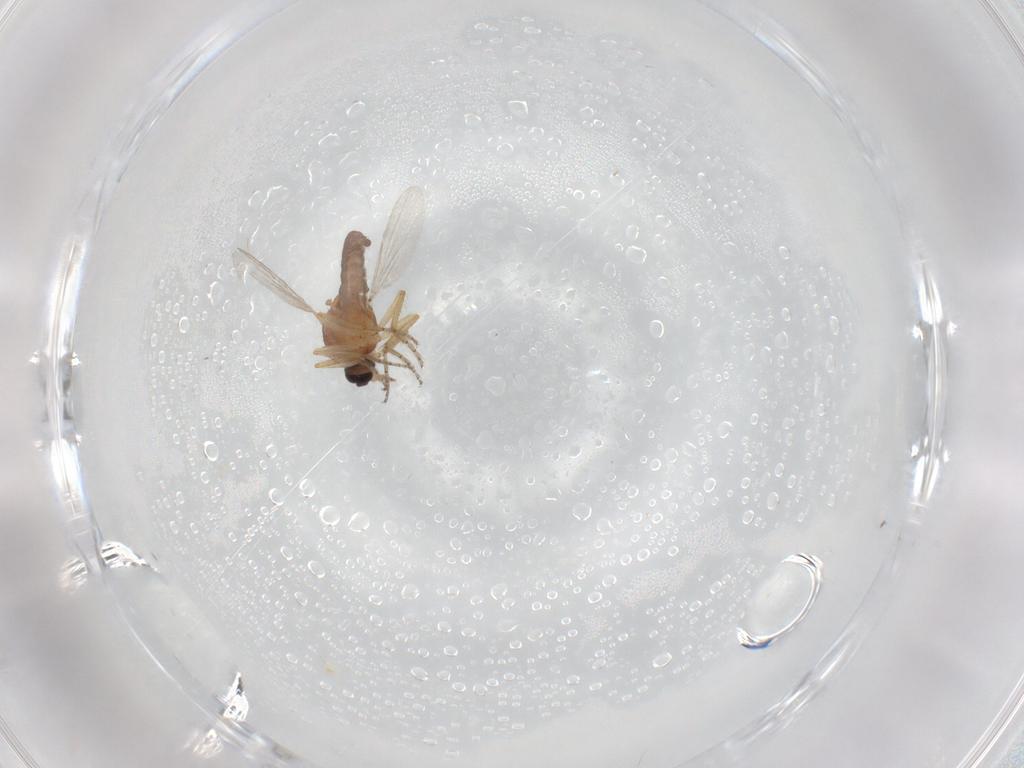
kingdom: Animalia
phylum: Arthropoda
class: Insecta
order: Diptera
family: Ceratopogonidae
